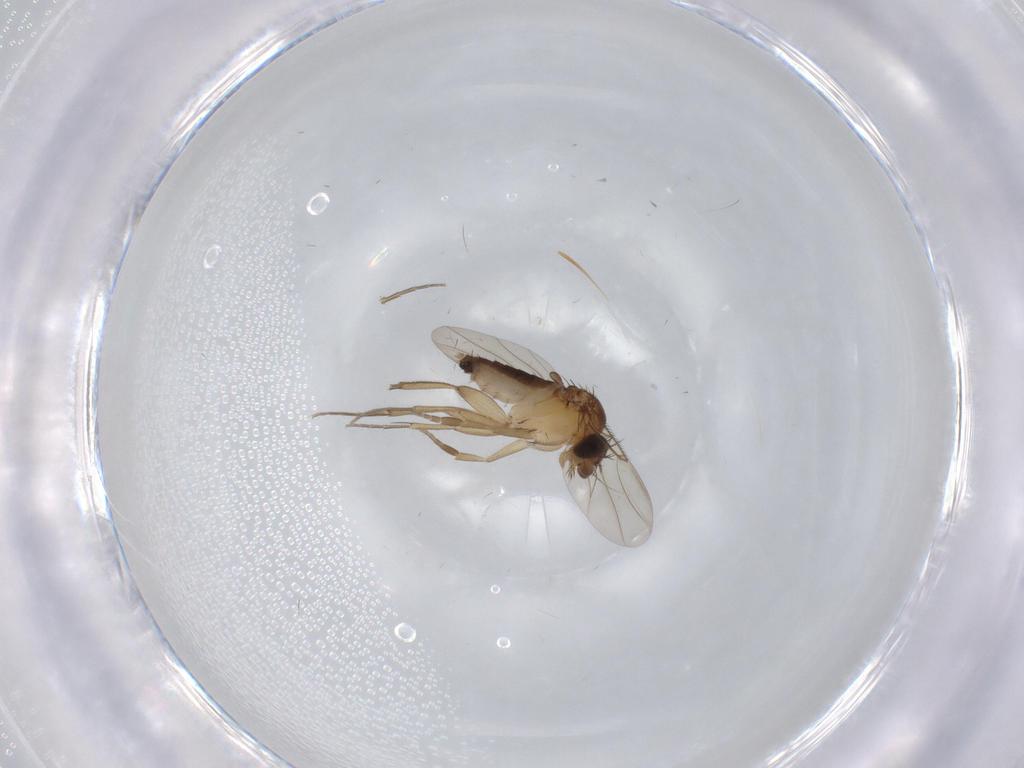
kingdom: Animalia
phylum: Arthropoda
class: Insecta
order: Diptera
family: Phoridae
